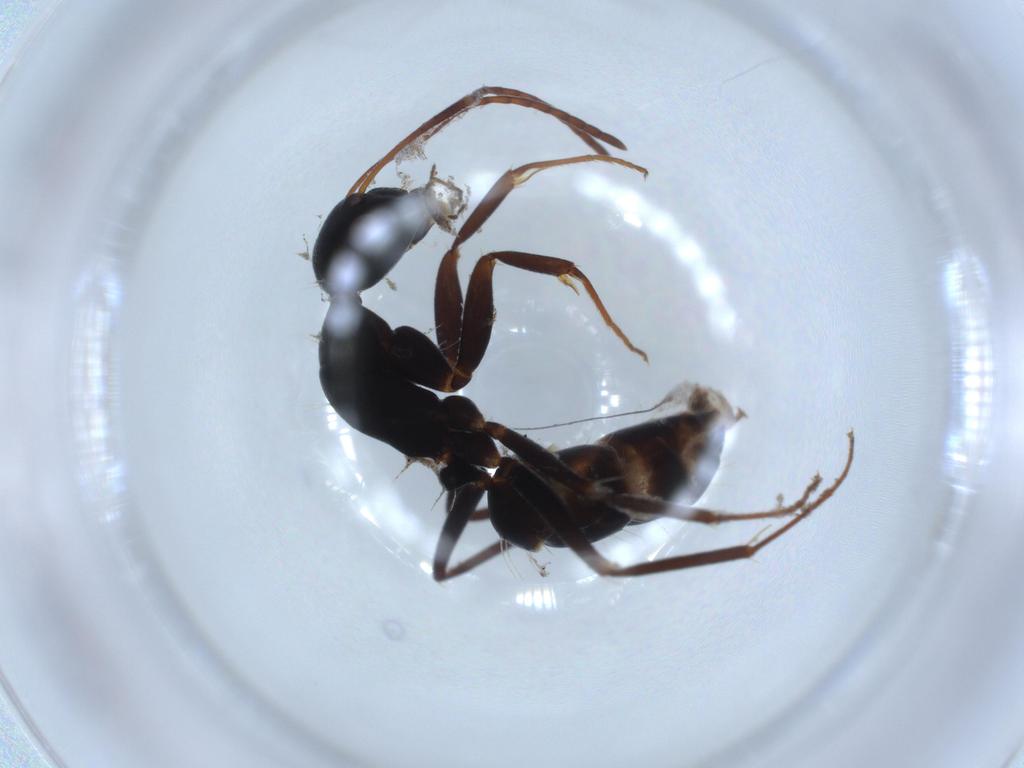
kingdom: Animalia
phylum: Arthropoda
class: Insecta
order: Hymenoptera
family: Formicidae
